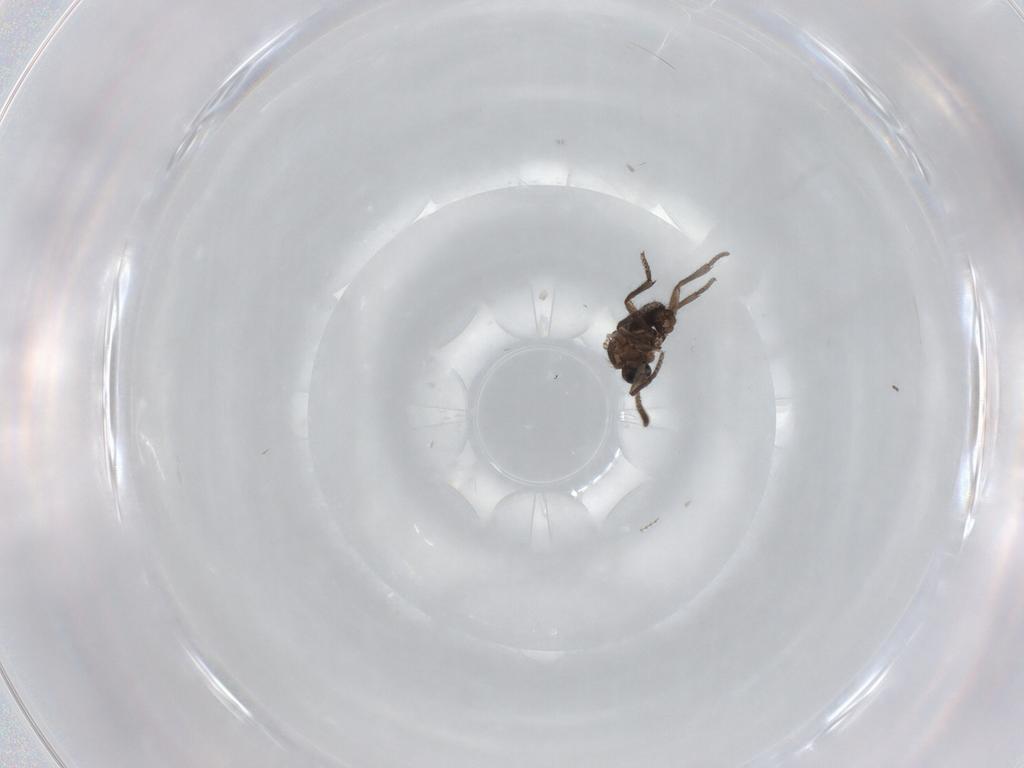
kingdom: Animalia
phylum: Arthropoda
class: Insecta
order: Diptera
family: Sciaridae
